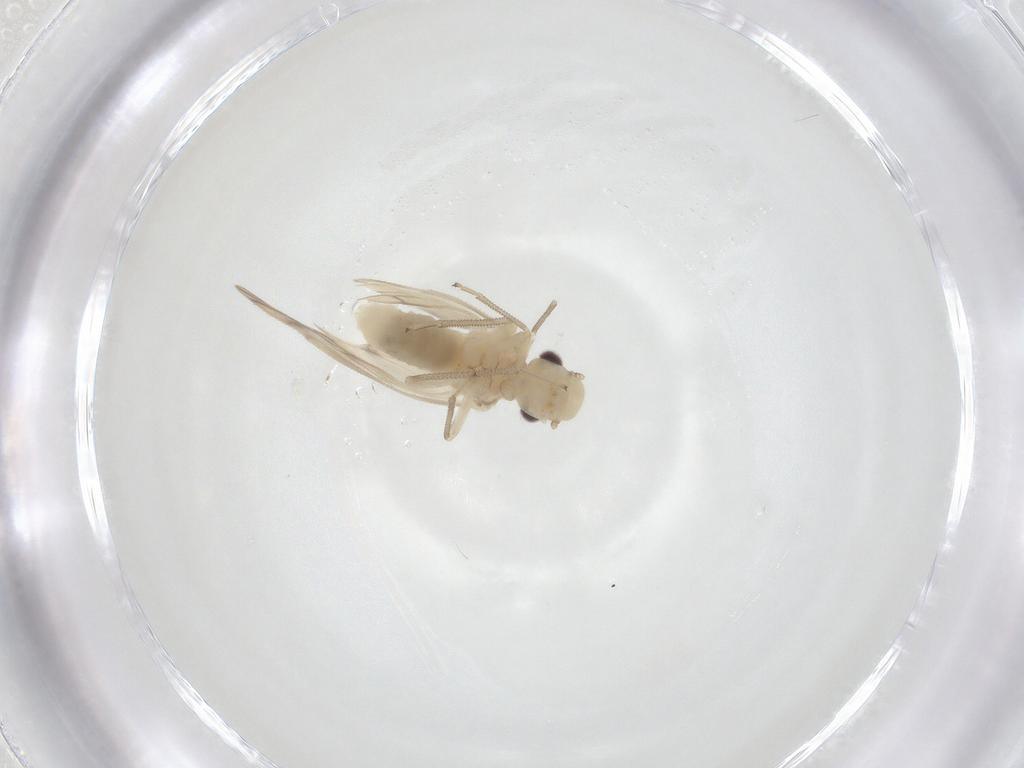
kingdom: Animalia
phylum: Arthropoda
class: Insecta
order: Psocodea
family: Caeciliusidae
